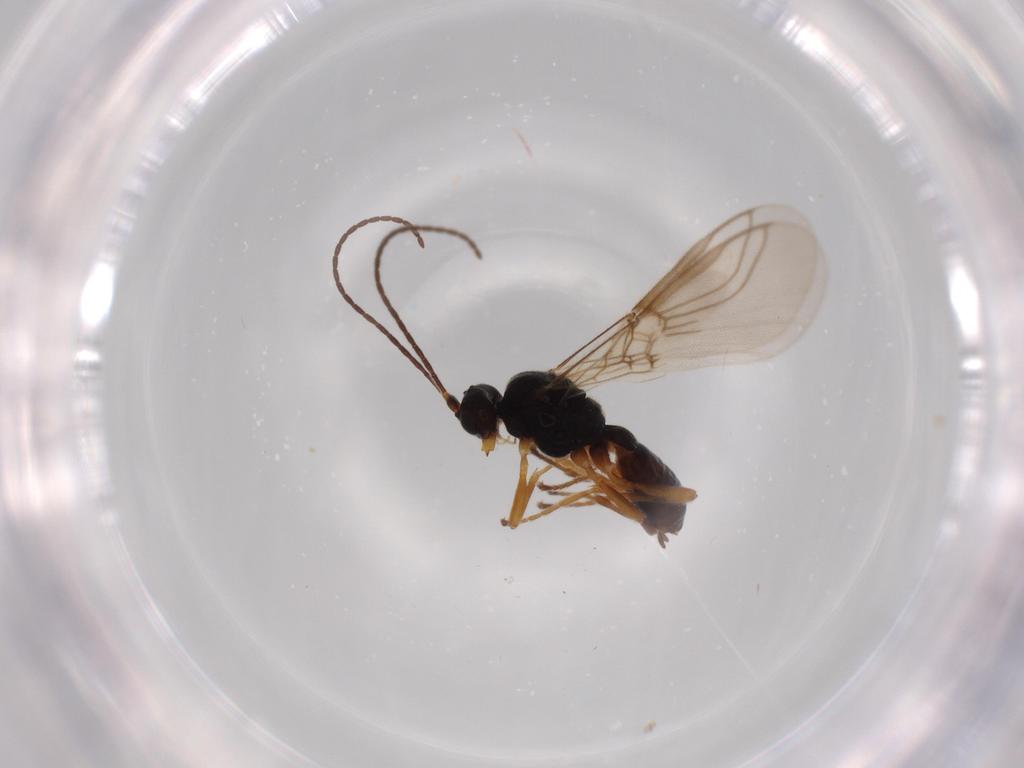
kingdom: Animalia
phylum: Arthropoda
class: Insecta
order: Hymenoptera
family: Braconidae
